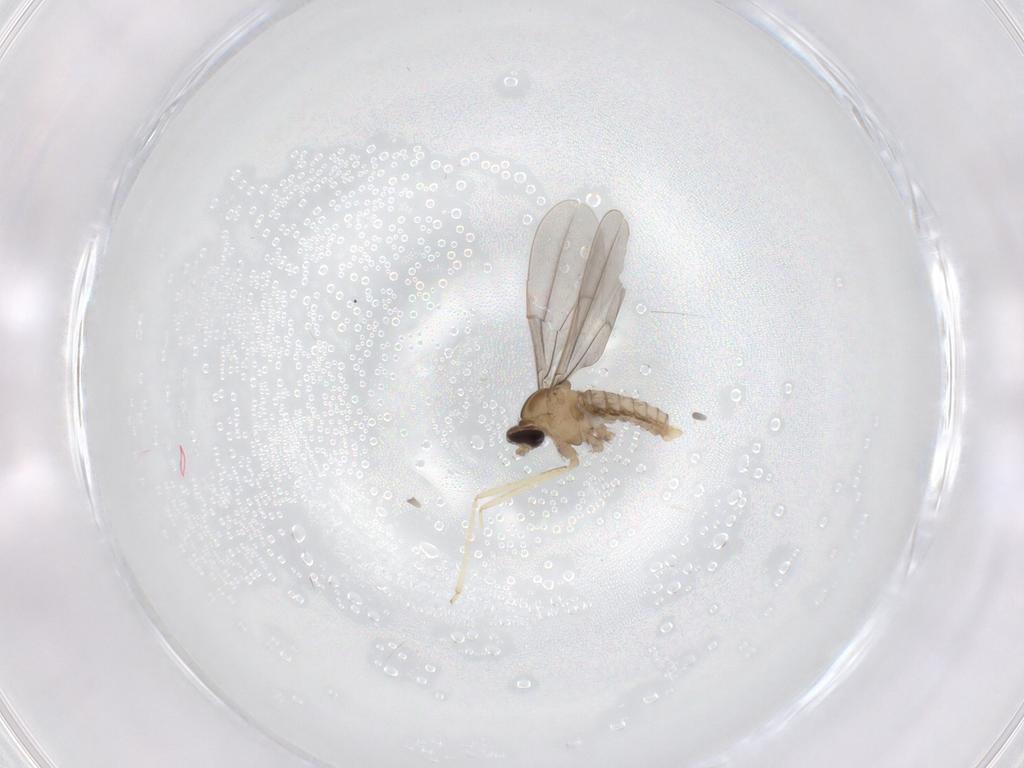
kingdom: Animalia
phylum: Arthropoda
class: Insecta
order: Diptera
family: Cecidomyiidae
